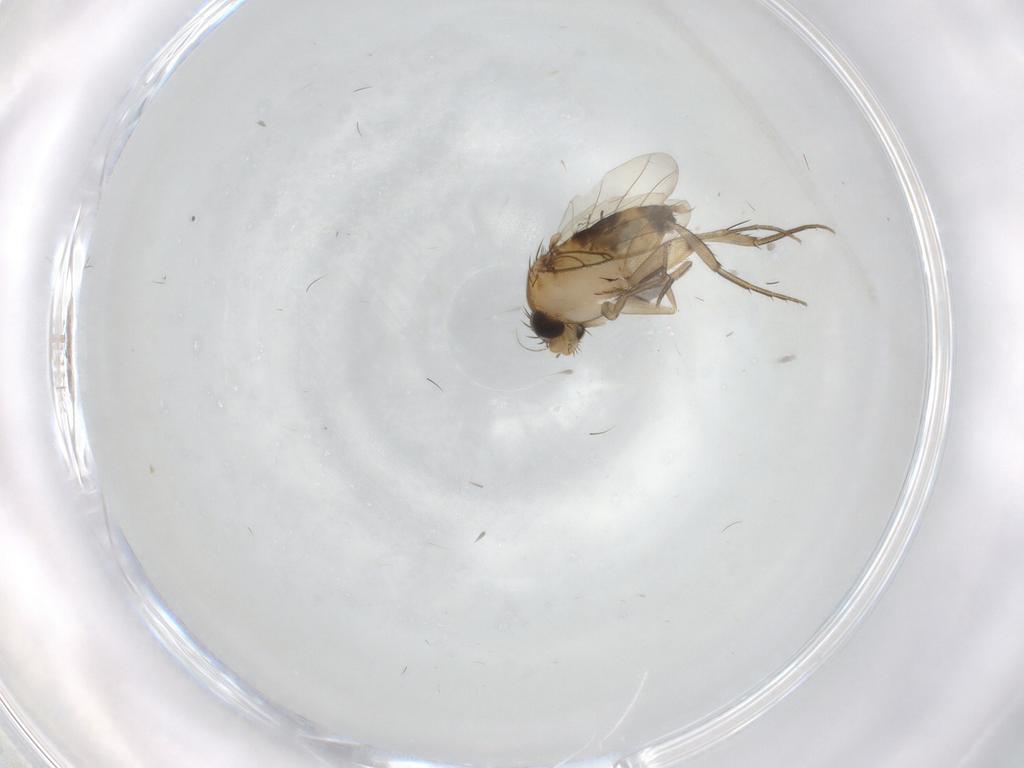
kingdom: Animalia
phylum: Arthropoda
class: Insecta
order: Diptera
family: Phoridae
